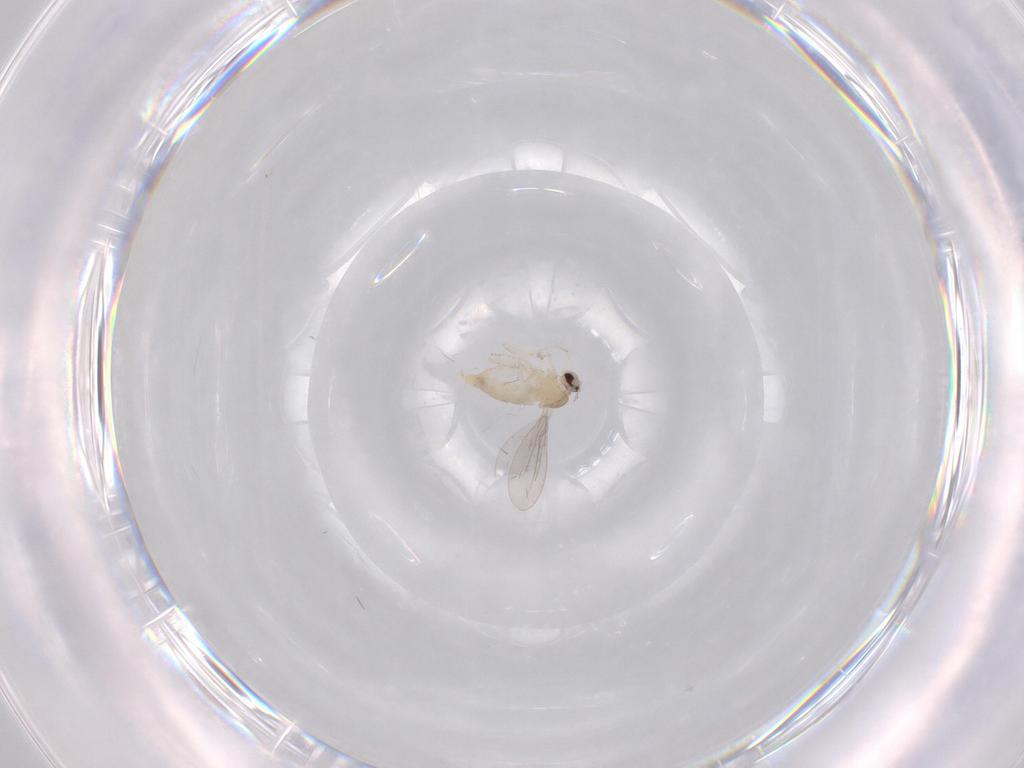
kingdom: Animalia
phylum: Arthropoda
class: Insecta
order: Diptera
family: Cecidomyiidae
